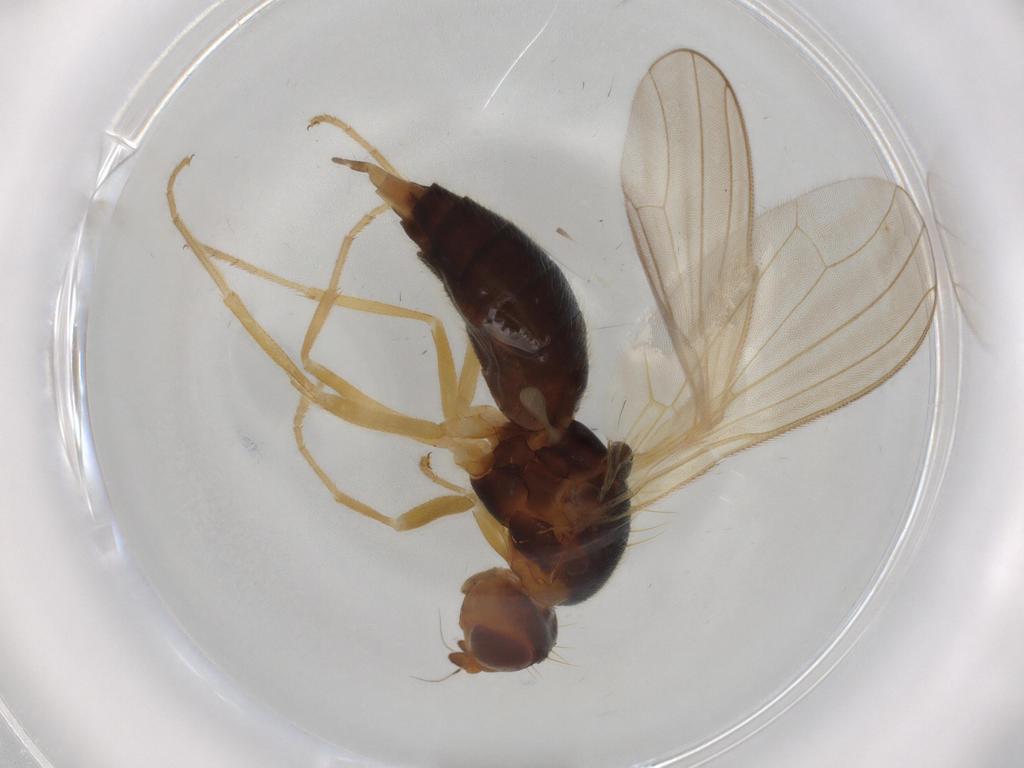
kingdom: Animalia
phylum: Arthropoda
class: Insecta
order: Diptera
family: Psilidae
